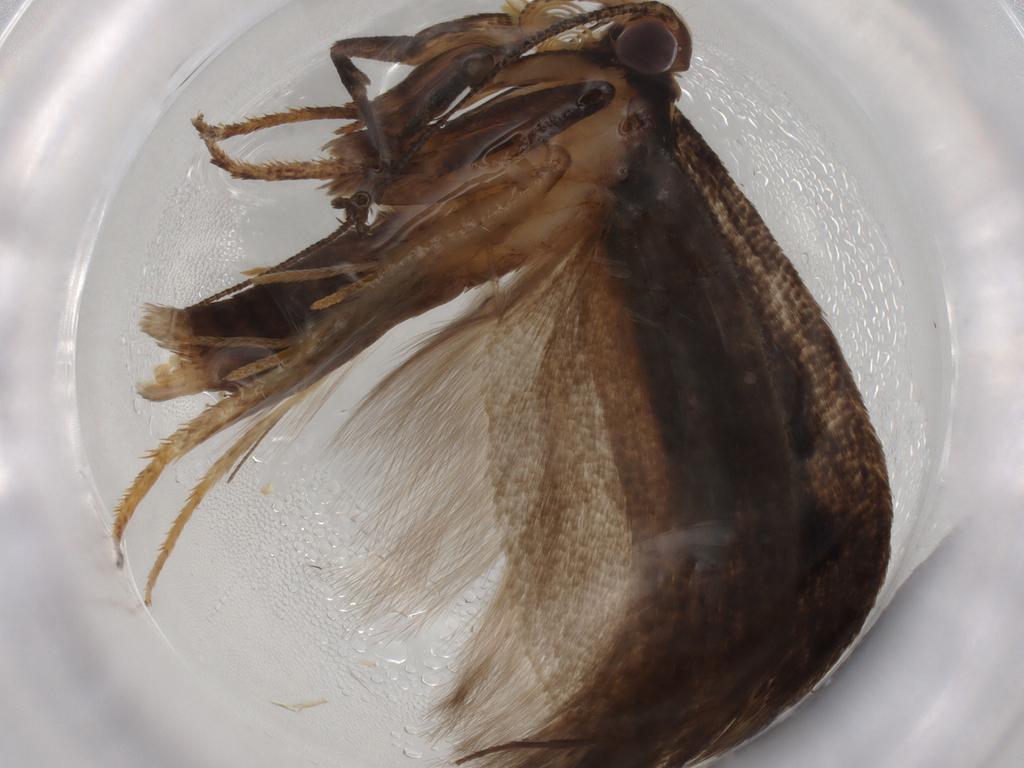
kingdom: Animalia
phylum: Arthropoda
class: Insecta
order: Lepidoptera
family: Gelechiidae
